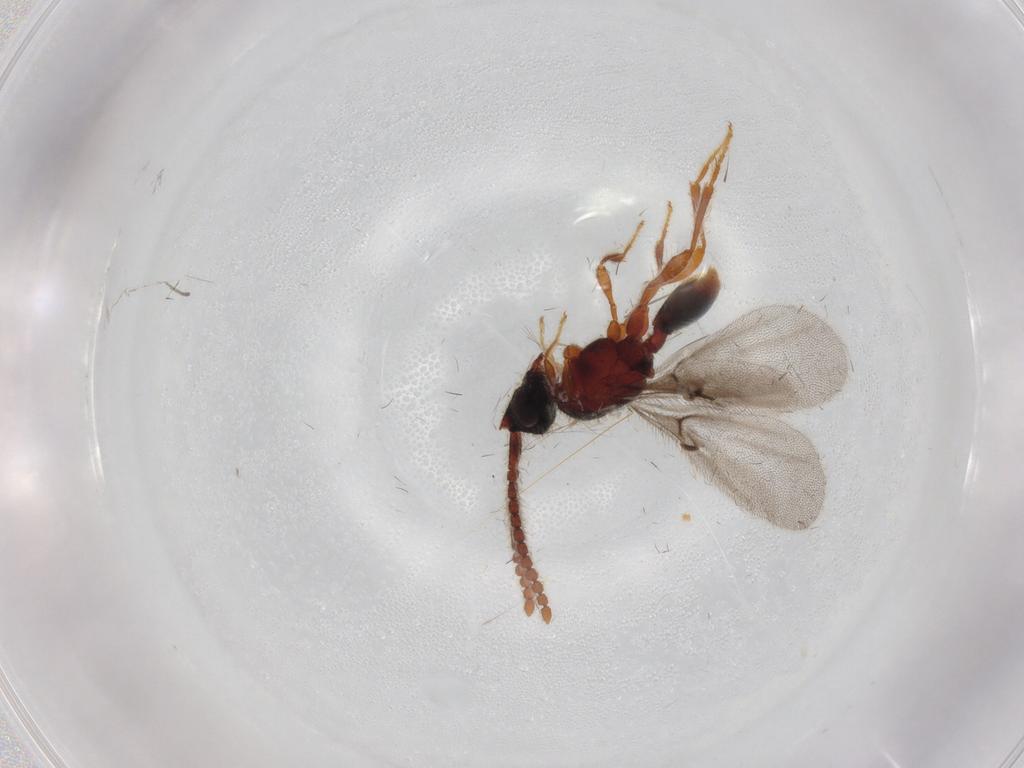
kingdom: Animalia
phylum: Arthropoda
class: Insecta
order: Hymenoptera
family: Diapriidae
